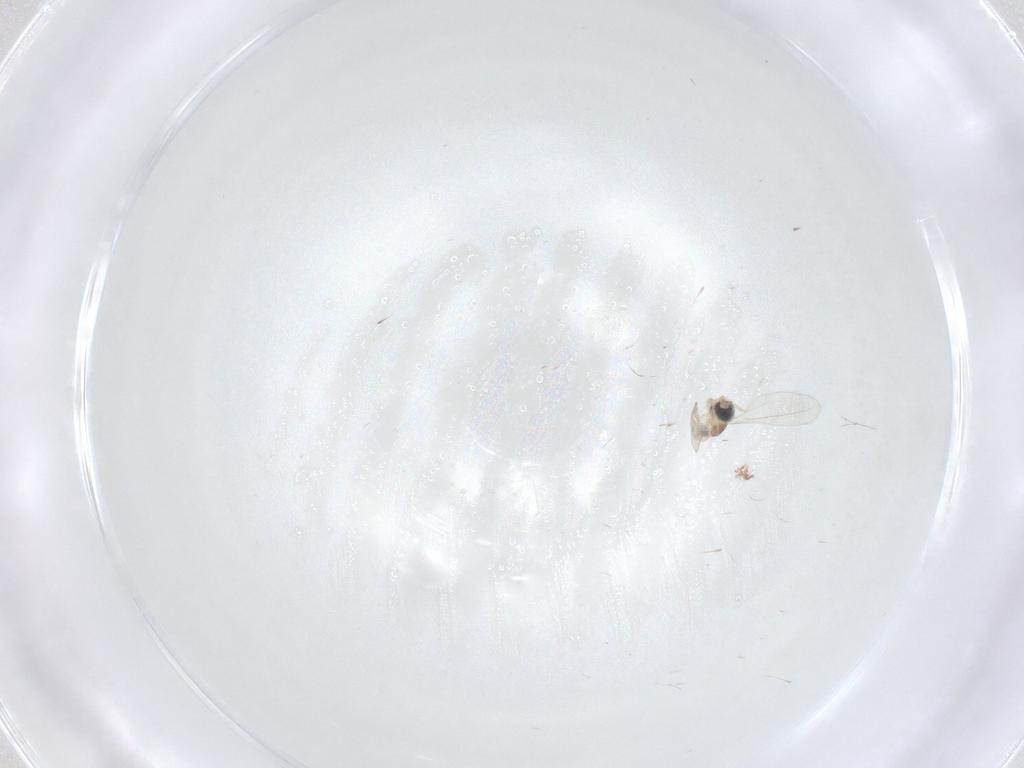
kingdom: Animalia
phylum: Arthropoda
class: Insecta
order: Diptera
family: Cecidomyiidae
